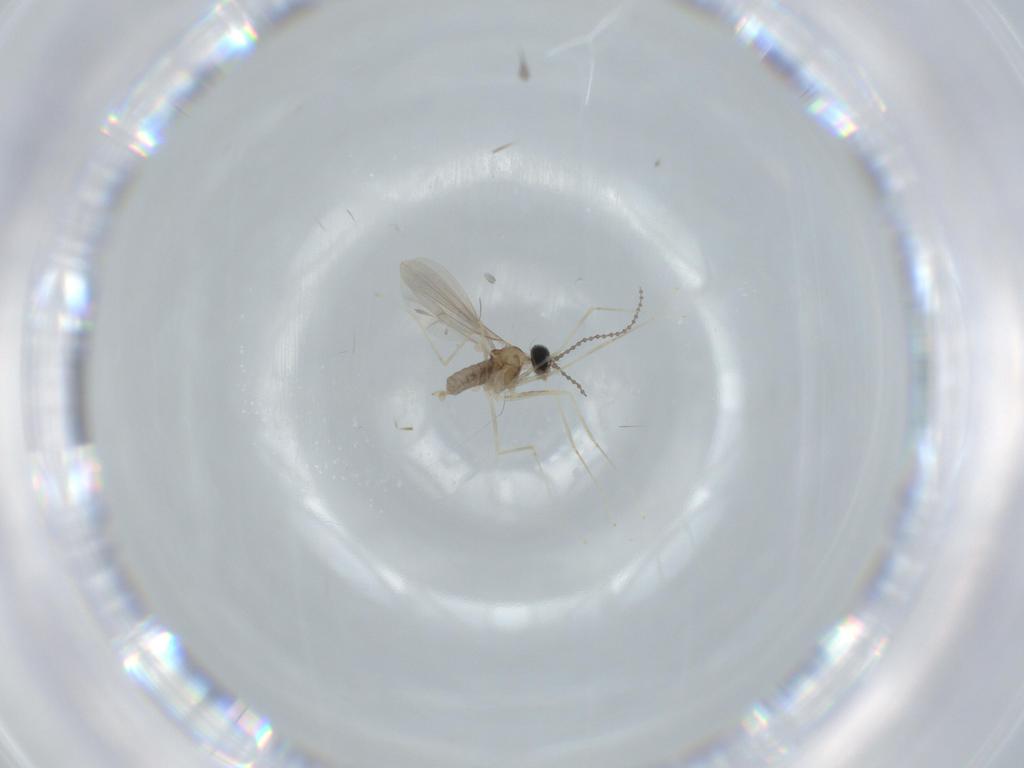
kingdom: Animalia
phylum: Arthropoda
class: Insecta
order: Diptera
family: Cecidomyiidae
